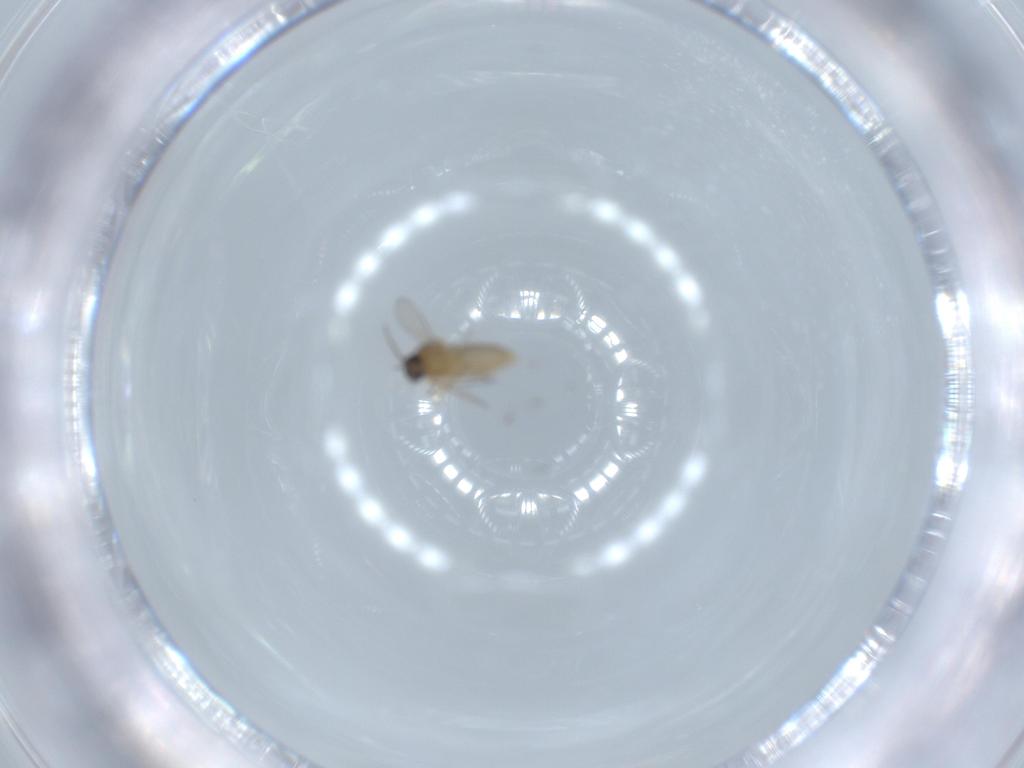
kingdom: Animalia
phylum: Arthropoda
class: Insecta
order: Diptera
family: Ceratopogonidae
